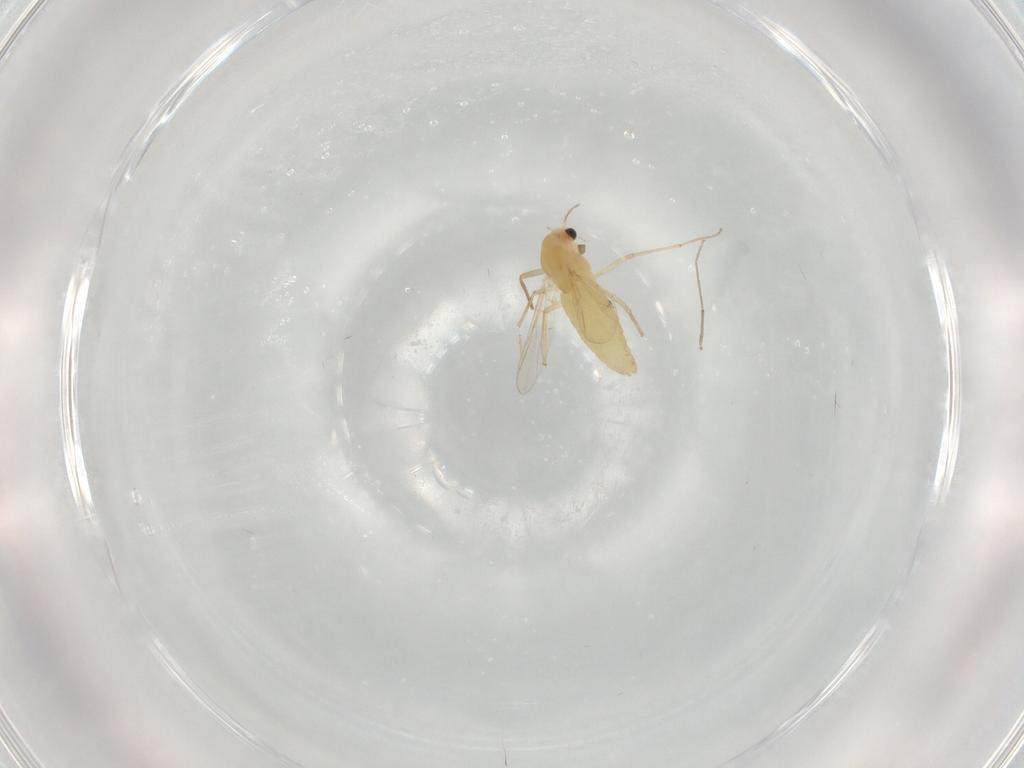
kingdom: Animalia
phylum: Arthropoda
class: Insecta
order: Diptera
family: Chironomidae
